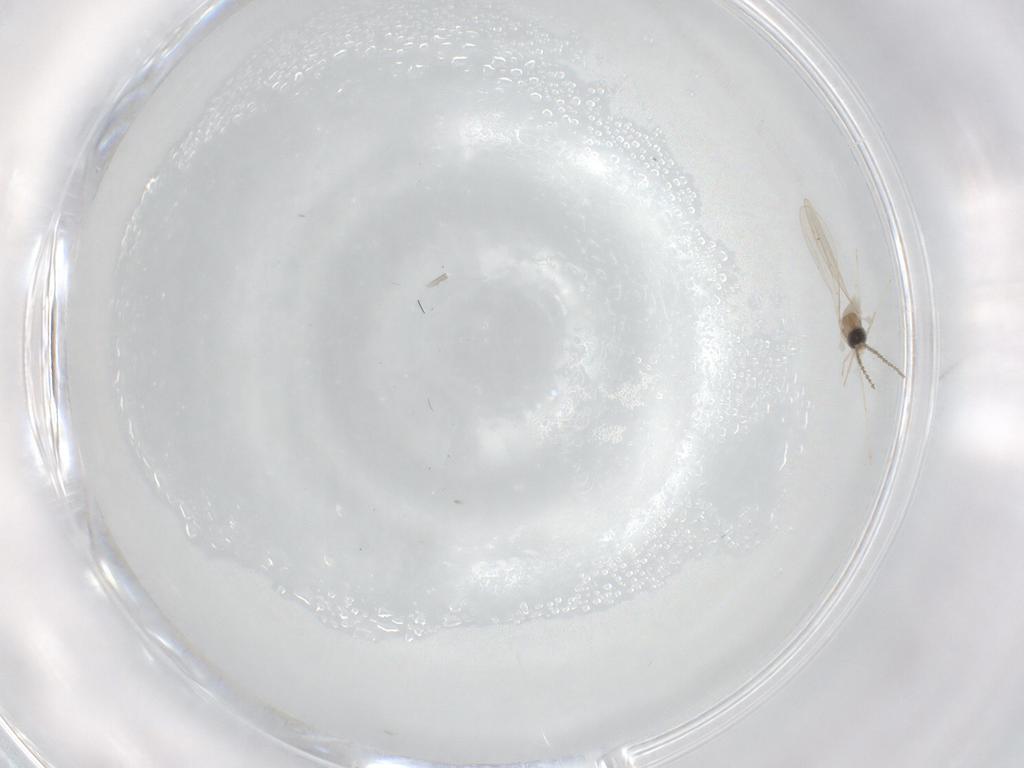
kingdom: Animalia
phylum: Arthropoda
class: Insecta
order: Diptera
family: Cecidomyiidae
